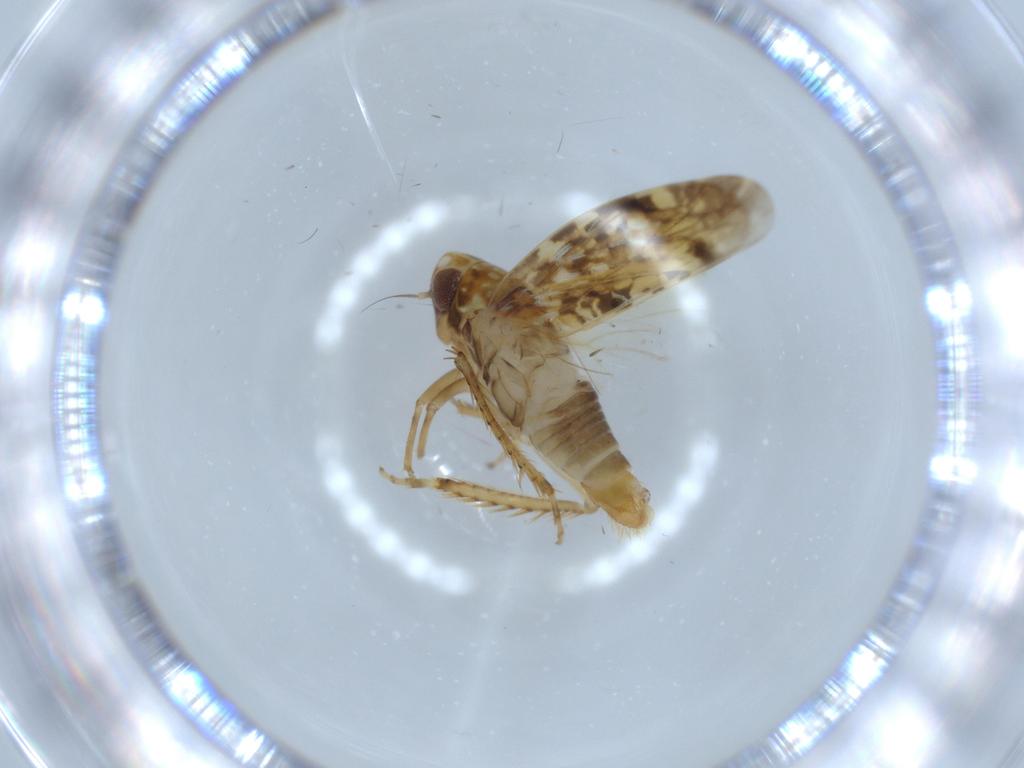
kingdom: Animalia
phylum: Arthropoda
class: Insecta
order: Hemiptera
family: Cicadellidae
